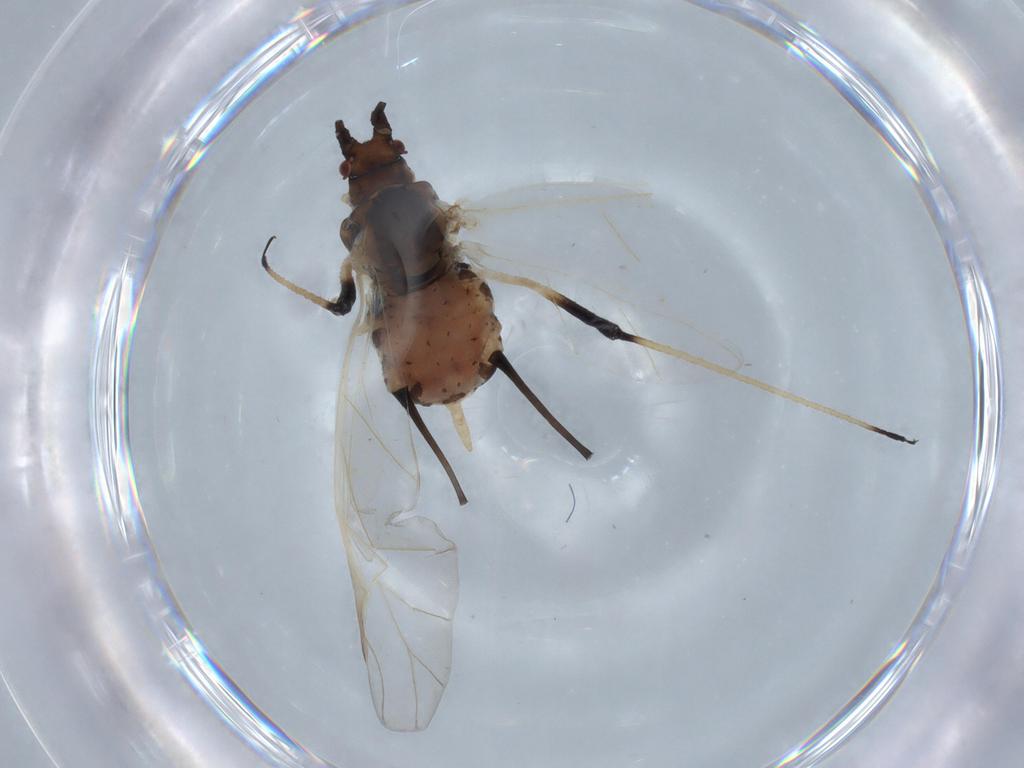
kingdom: Animalia
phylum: Arthropoda
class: Insecta
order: Hemiptera
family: Aphididae
